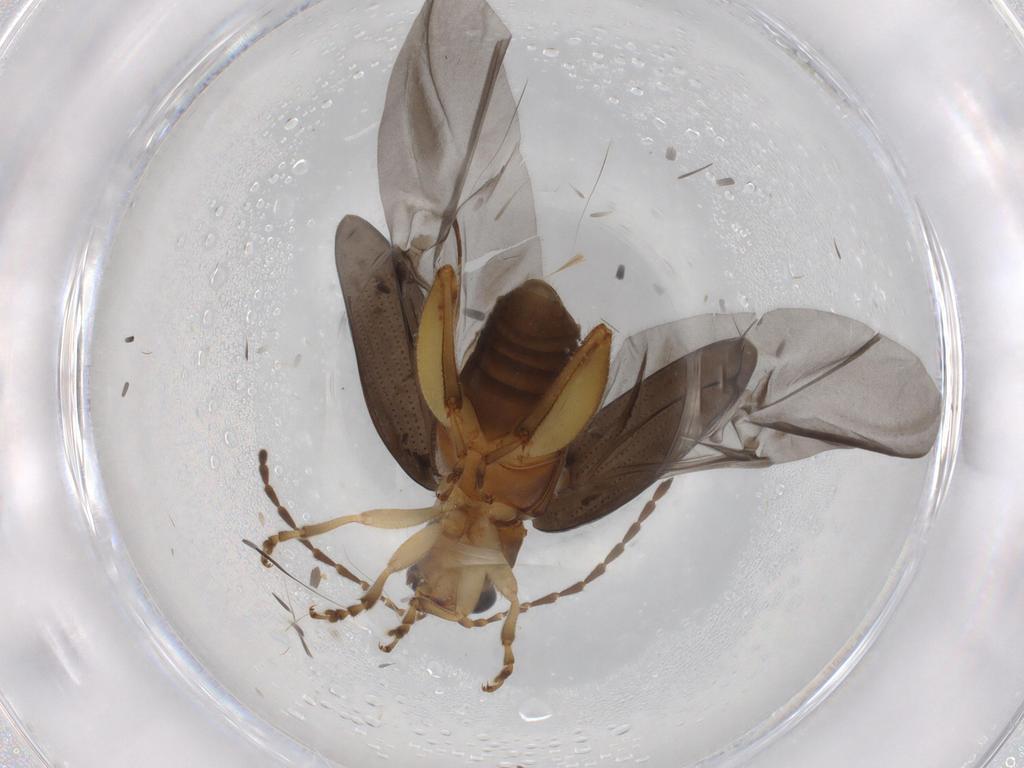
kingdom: Animalia
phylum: Arthropoda
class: Insecta
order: Coleoptera
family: Chrysomelidae
